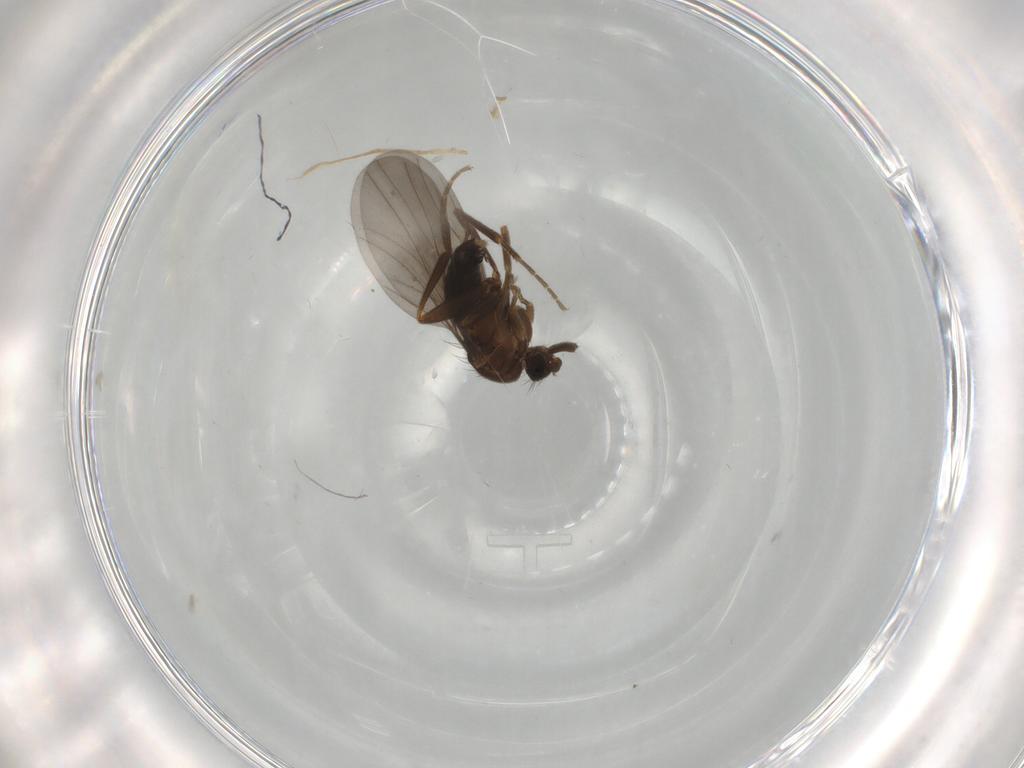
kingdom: Animalia
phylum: Arthropoda
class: Insecta
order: Diptera
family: Phoridae
